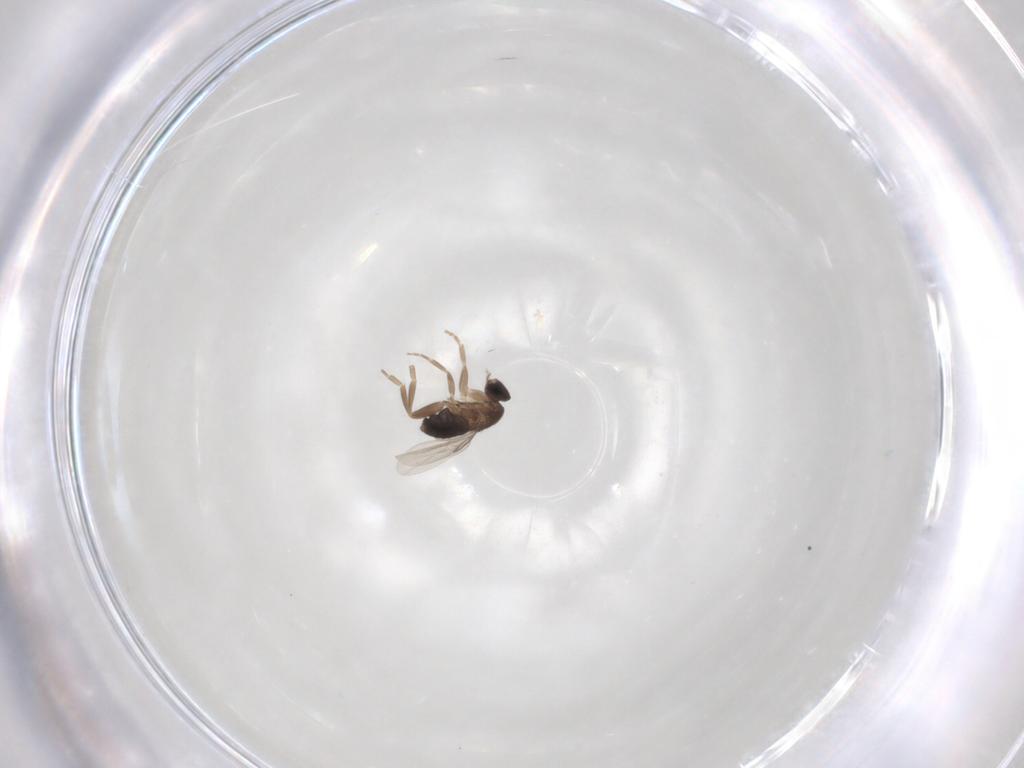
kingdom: Animalia
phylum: Arthropoda
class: Insecta
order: Diptera
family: Phoridae
